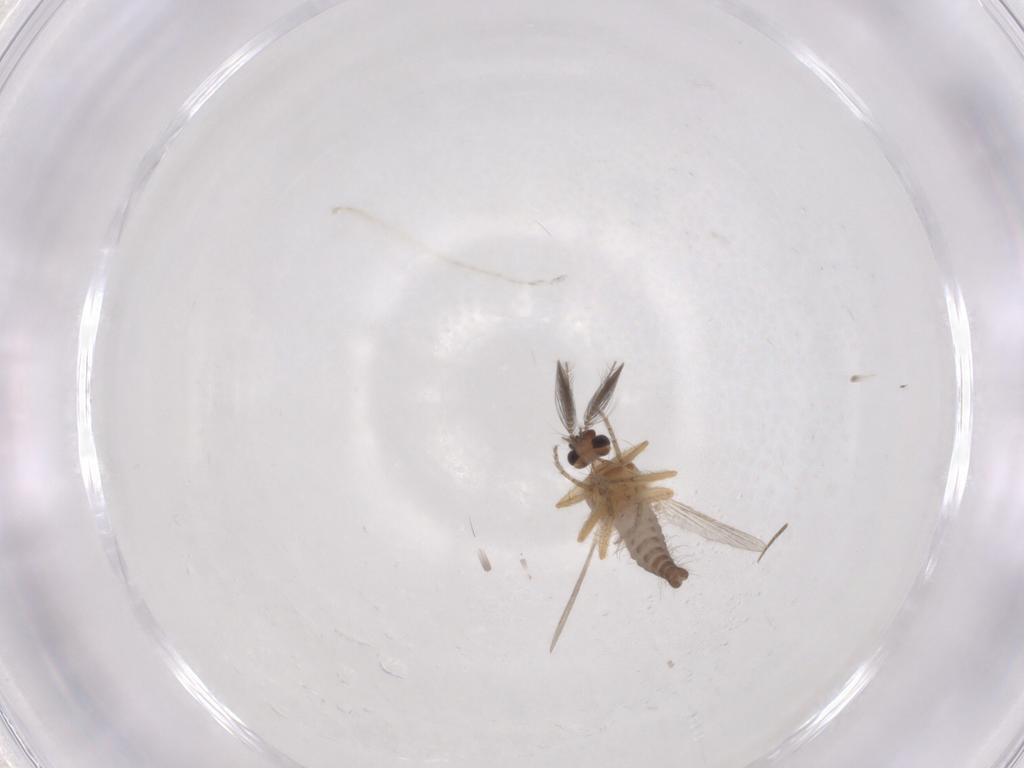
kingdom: Animalia
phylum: Arthropoda
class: Insecta
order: Diptera
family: Ceratopogonidae
